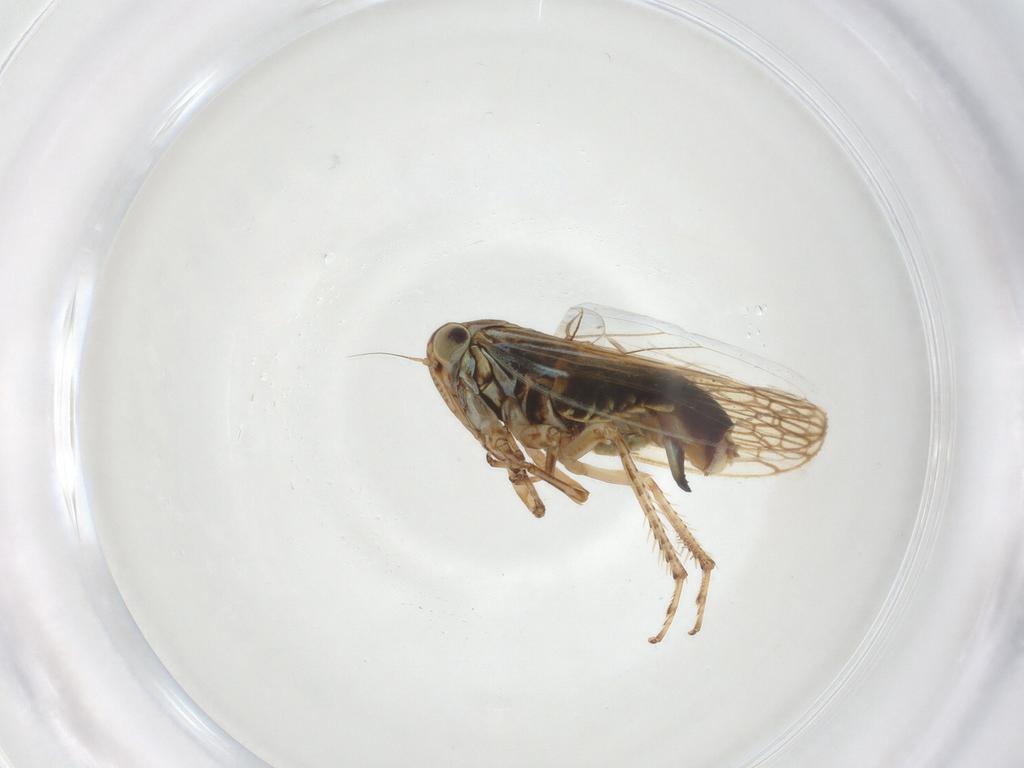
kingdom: Animalia
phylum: Arthropoda
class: Insecta
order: Hemiptera
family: Cicadellidae
